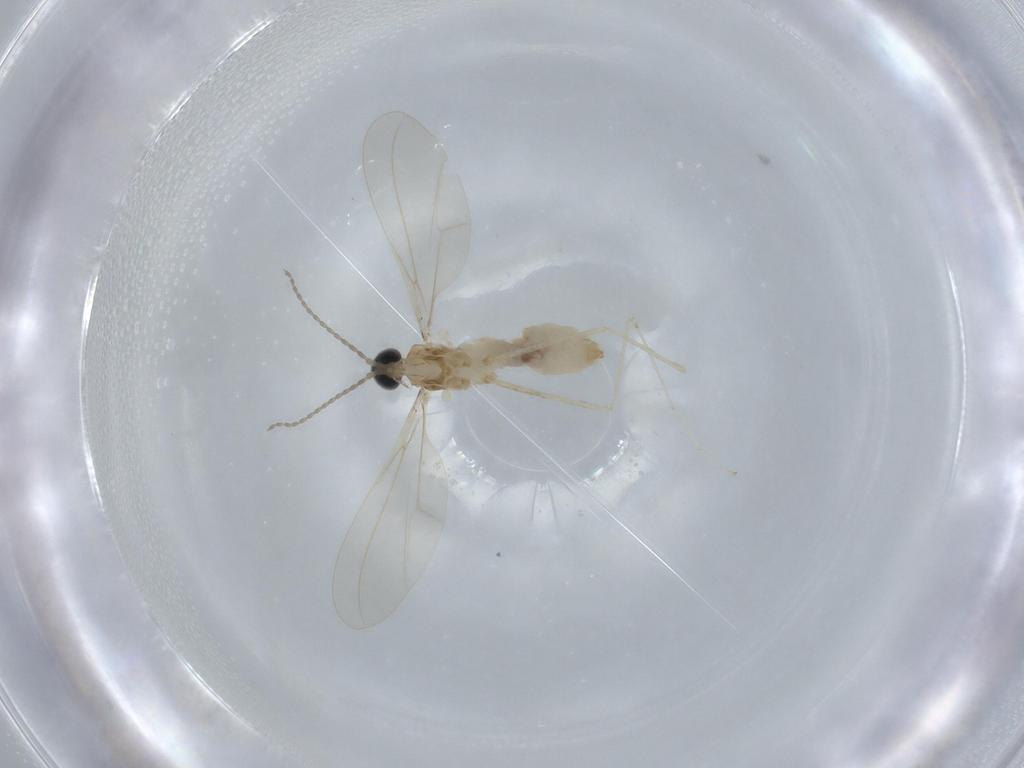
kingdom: Animalia
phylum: Arthropoda
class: Insecta
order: Diptera
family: Cecidomyiidae
